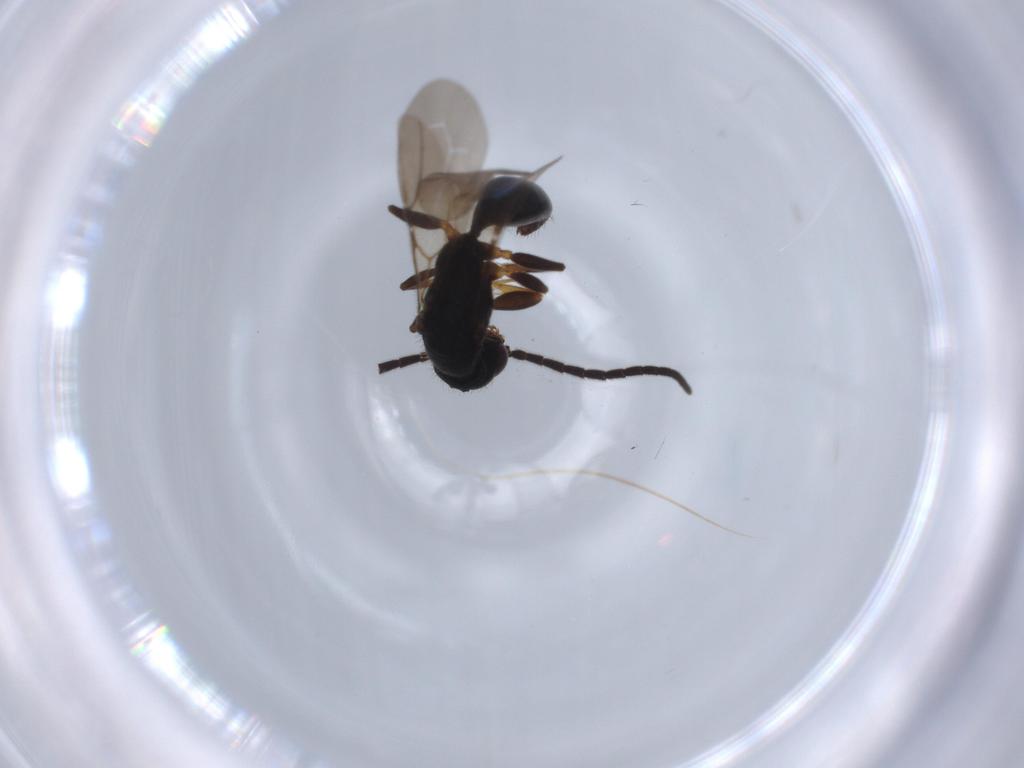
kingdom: Animalia
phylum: Arthropoda
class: Insecta
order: Hymenoptera
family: Bethylidae
